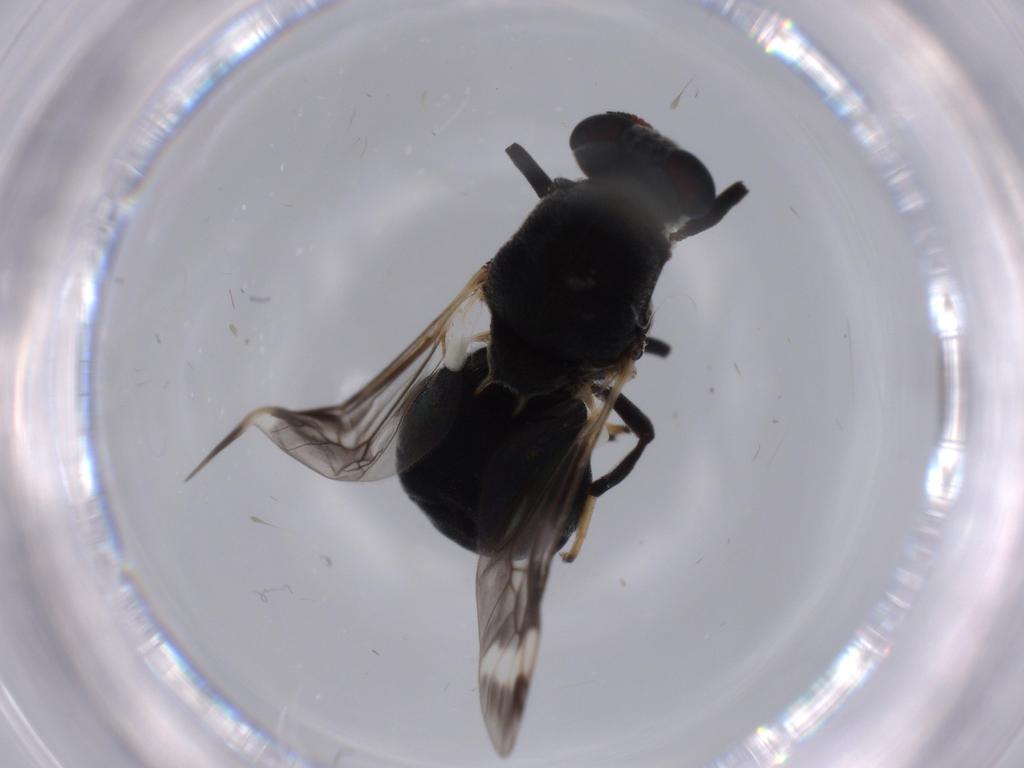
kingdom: Animalia
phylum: Arthropoda
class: Insecta
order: Diptera
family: Stratiomyidae
